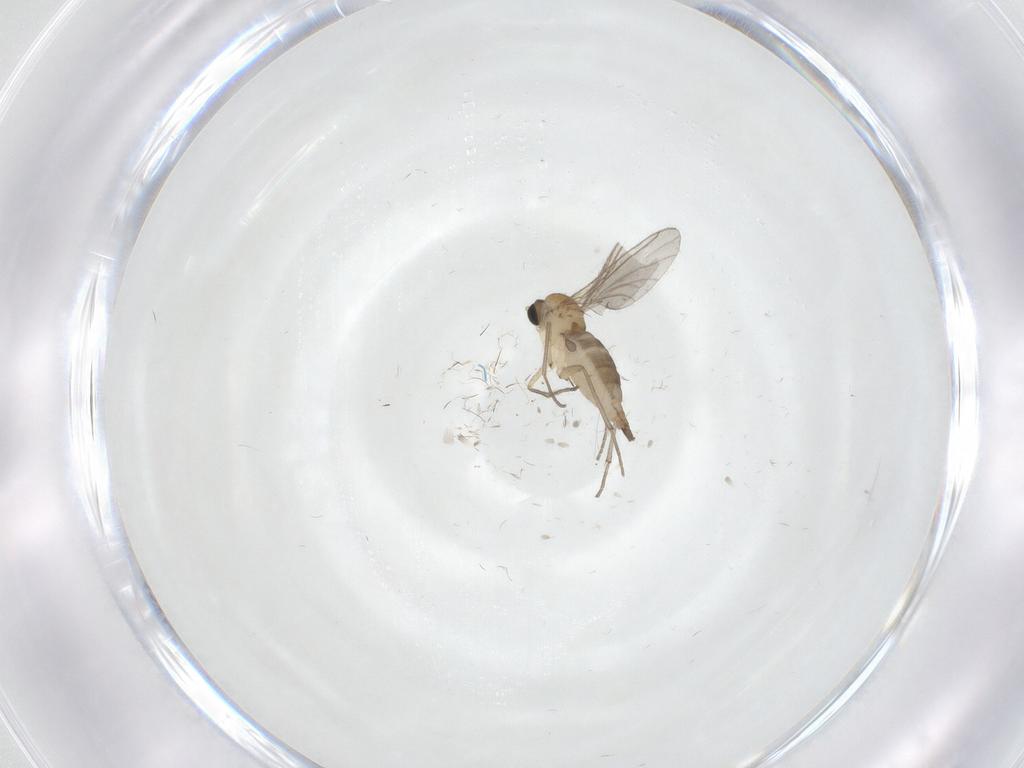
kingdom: Animalia
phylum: Arthropoda
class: Insecta
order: Diptera
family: Sciaridae
